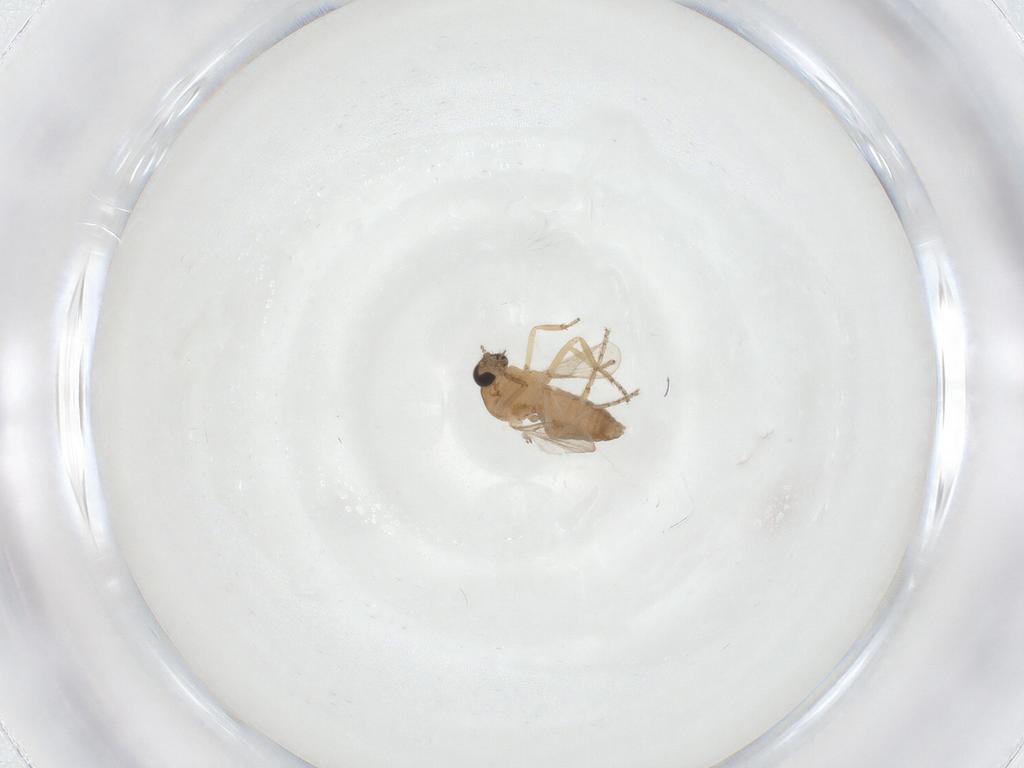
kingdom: Animalia
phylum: Arthropoda
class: Insecta
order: Diptera
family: Ceratopogonidae
